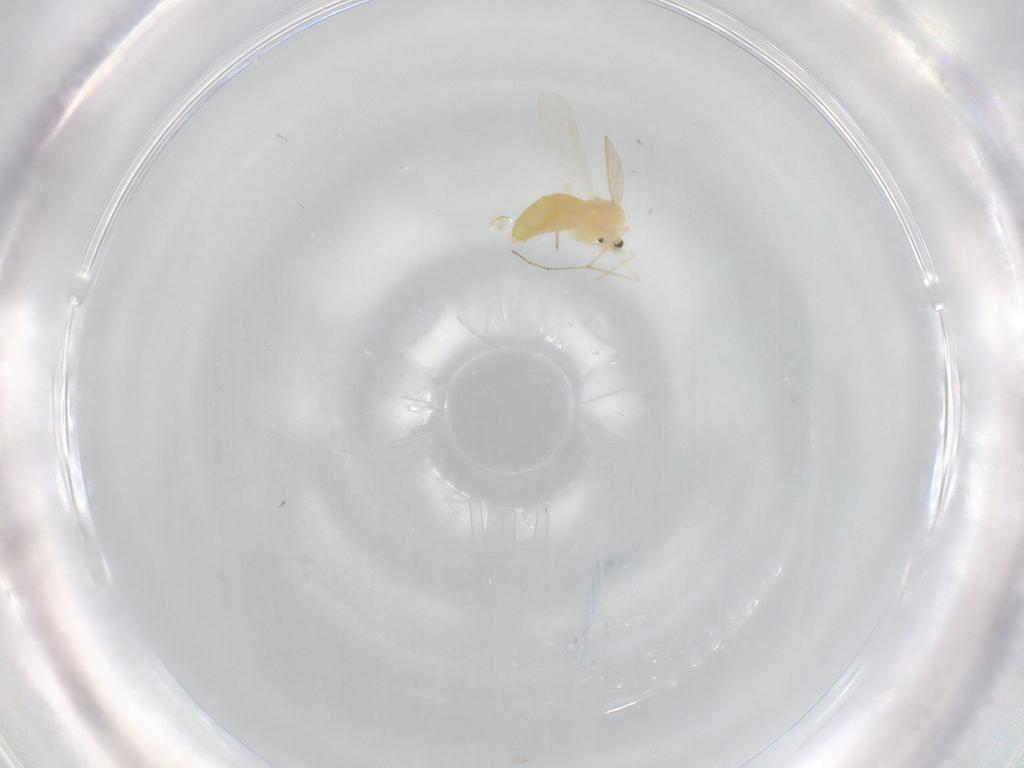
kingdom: Animalia
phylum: Arthropoda
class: Insecta
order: Diptera
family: Chironomidae
